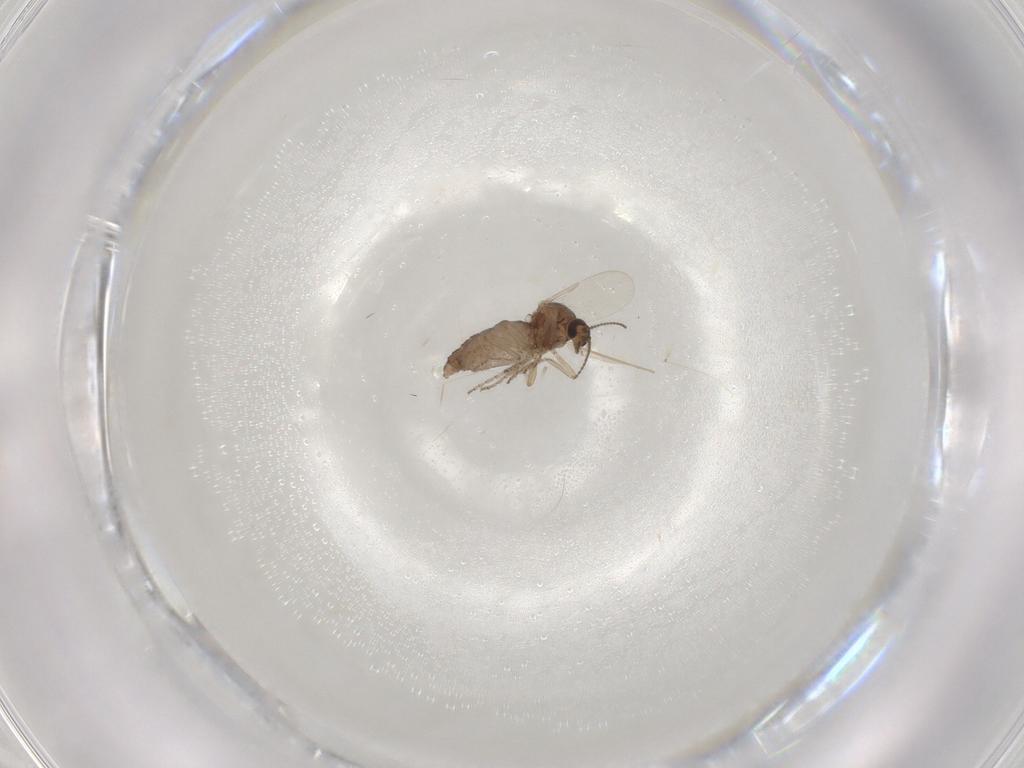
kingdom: Animalia
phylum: Arthropoda
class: Insecta
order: Diptera
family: Ceratopogonidae
